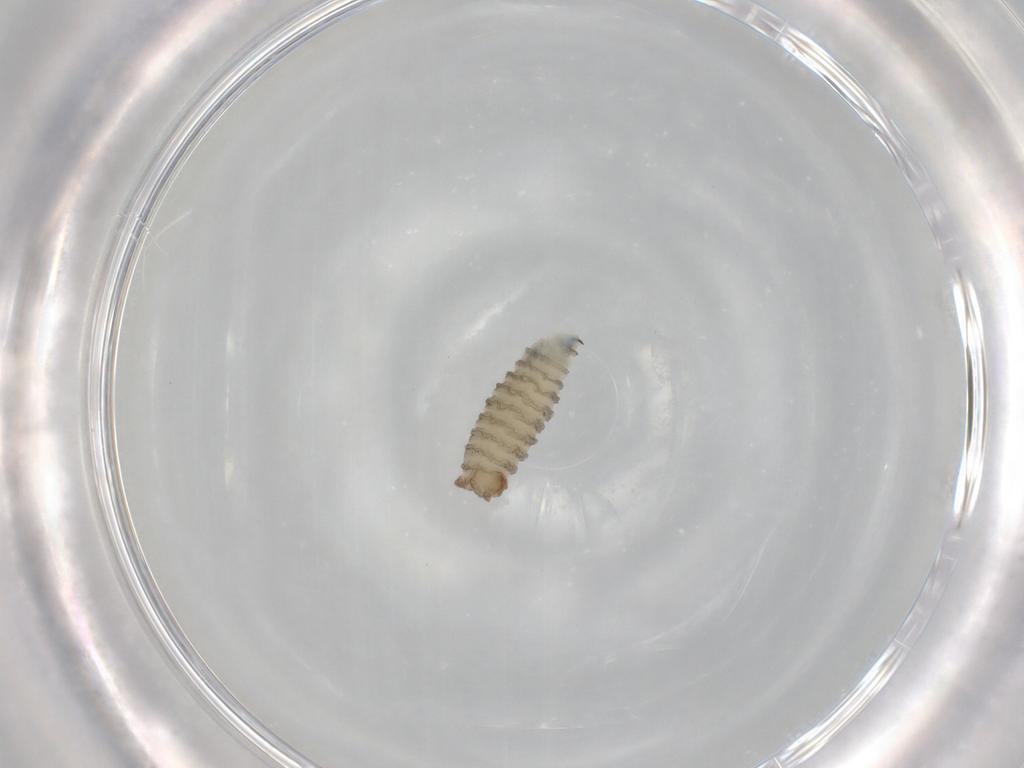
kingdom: Animalia
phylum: Arthropoda
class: Insecta
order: Diptera
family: Sarcophagidae
